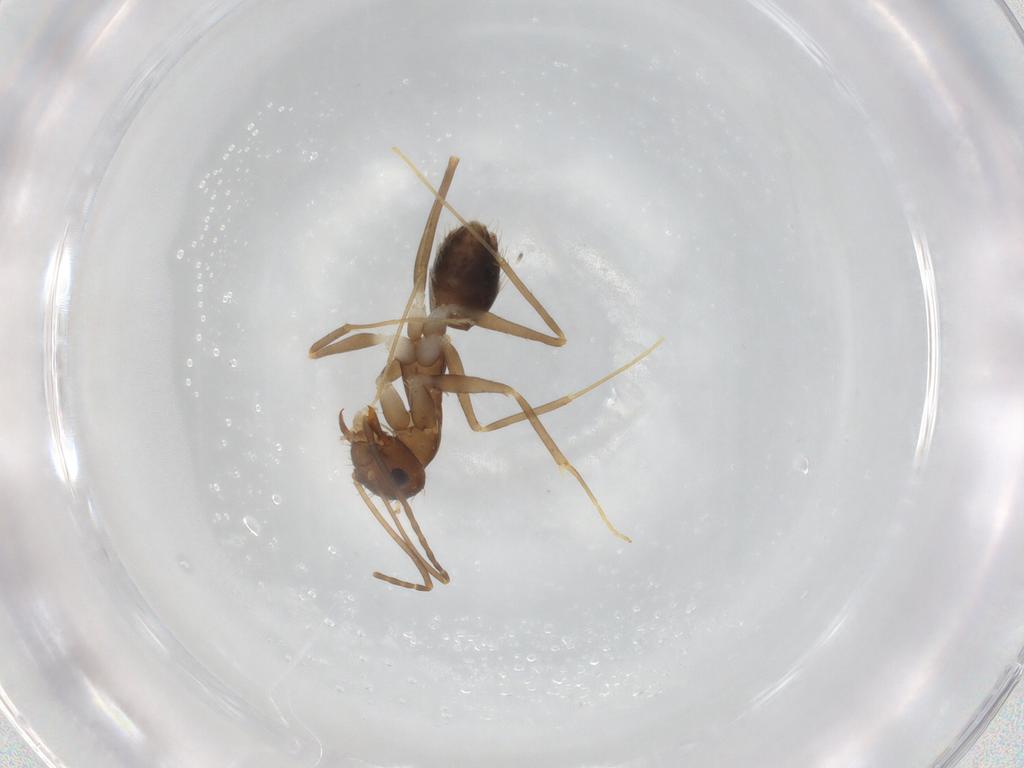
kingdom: Animalia
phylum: Arthropoda
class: Insecta
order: Hymenoptera
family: Formicidae
